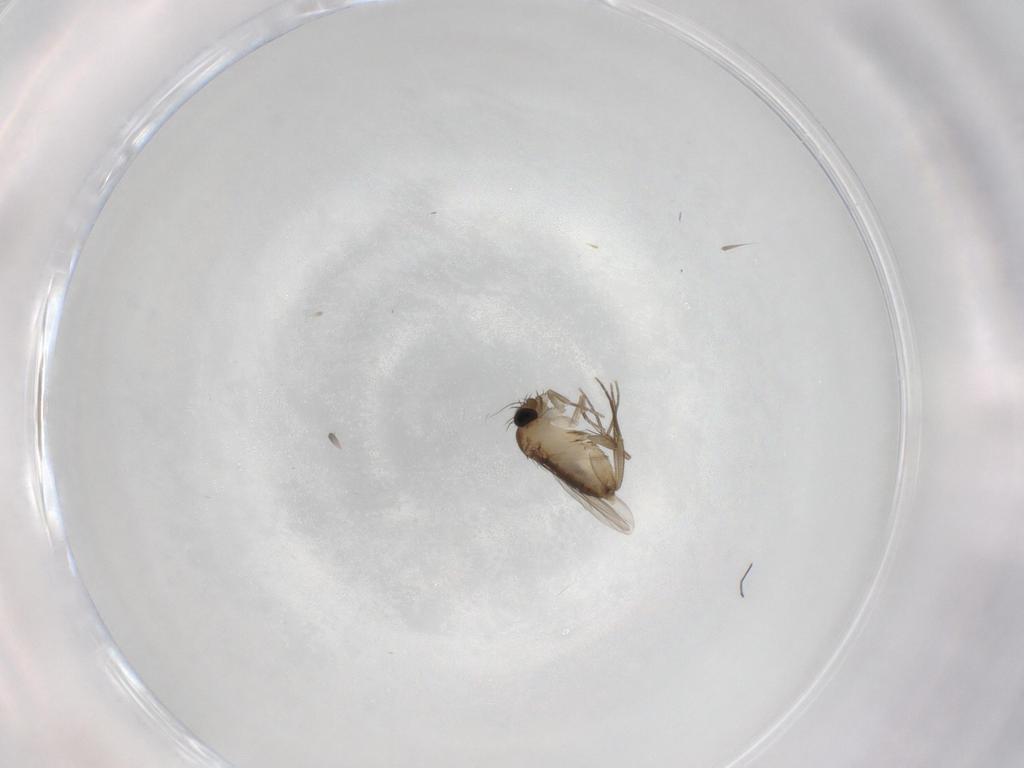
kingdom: Animalia
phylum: Arthropoda
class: Insecta
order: Diptera
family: Phoridae
